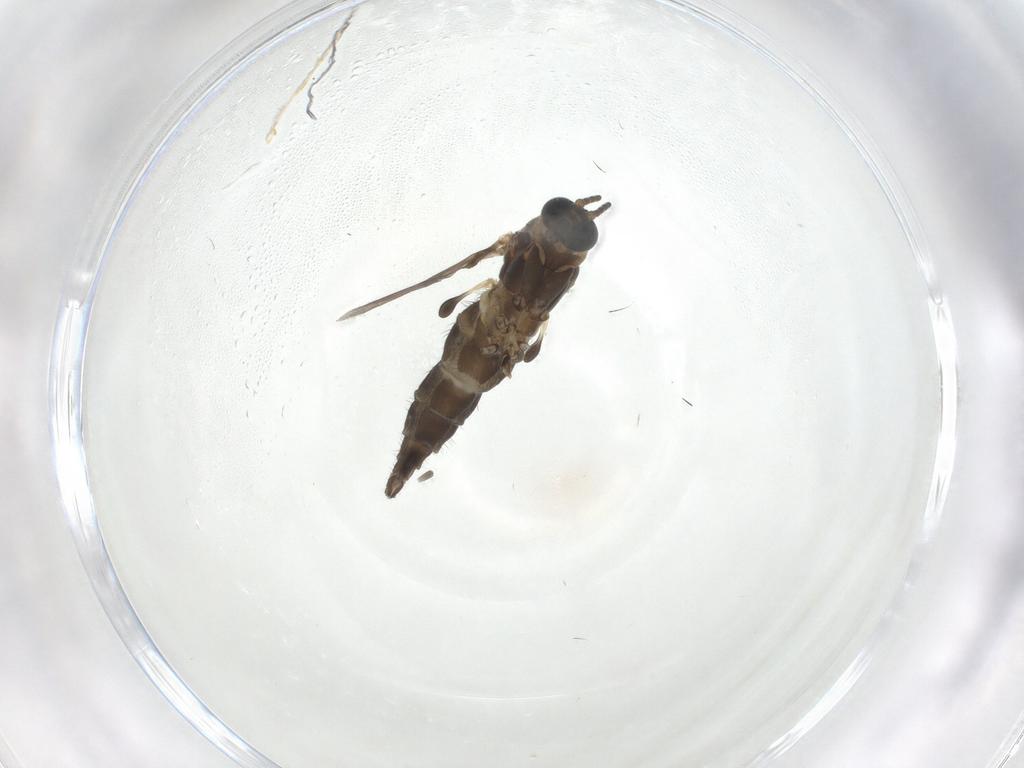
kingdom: Animalia
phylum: Arthropoda
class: Insecta
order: Diptera
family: Sciaridae
